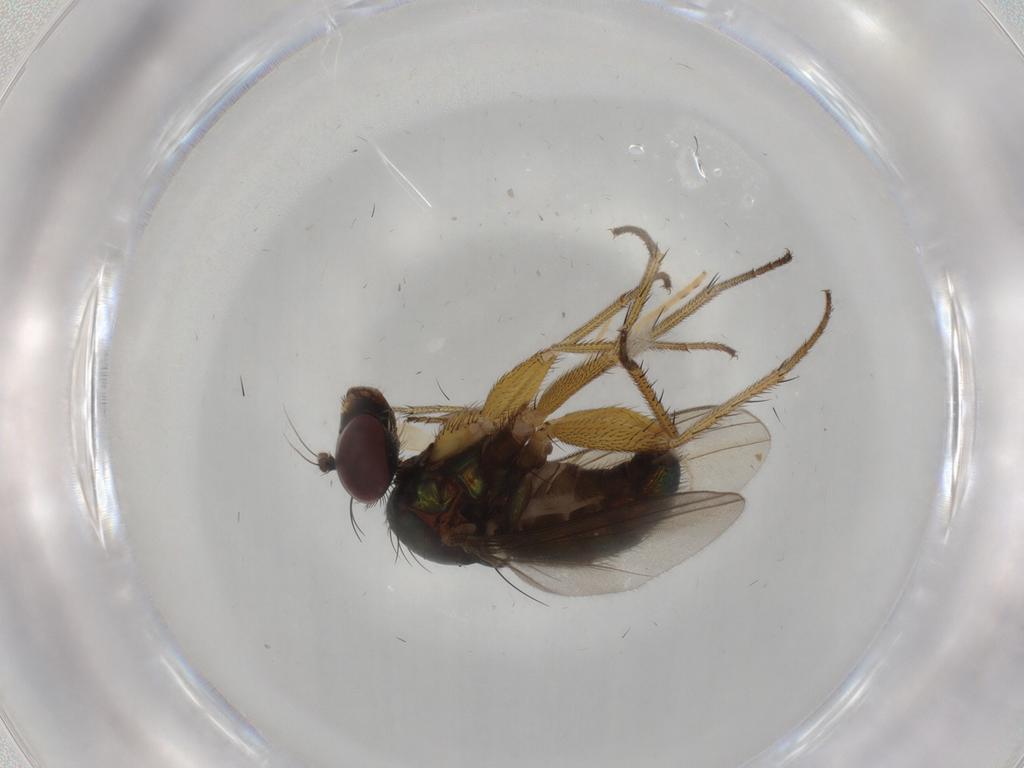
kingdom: Animalia
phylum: Arthropoda
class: Insecta
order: Diptera
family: Dolichopodidae
